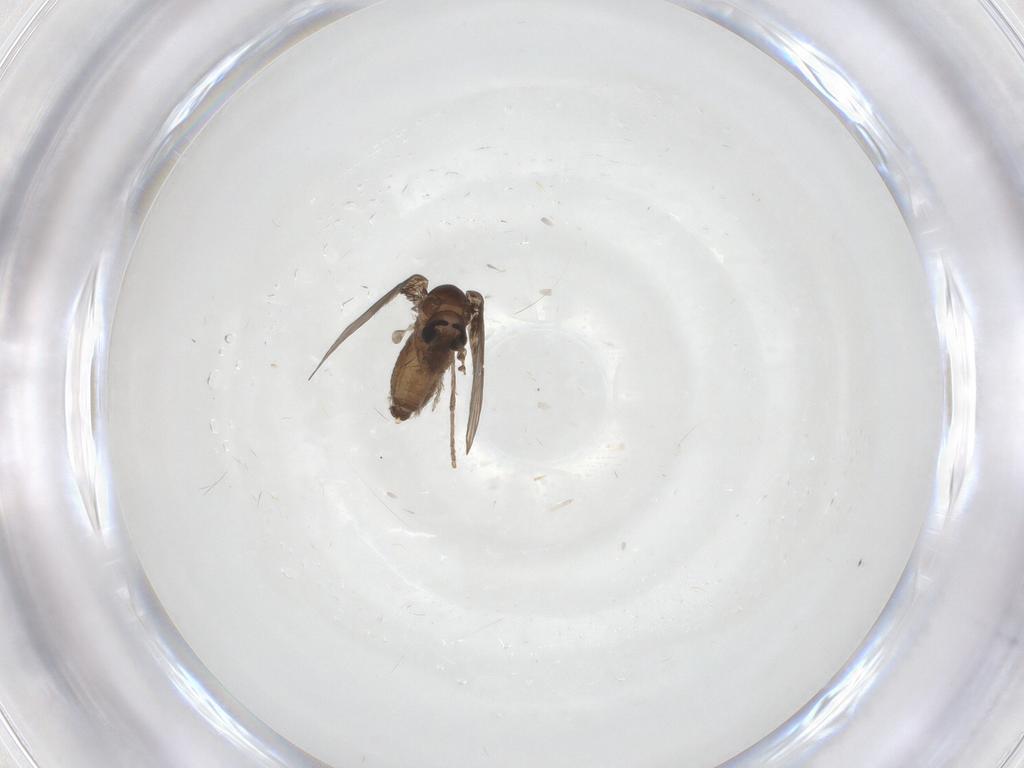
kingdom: Animalia
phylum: Arthropoda
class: Insecta
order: Diptera
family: Psychodidae
